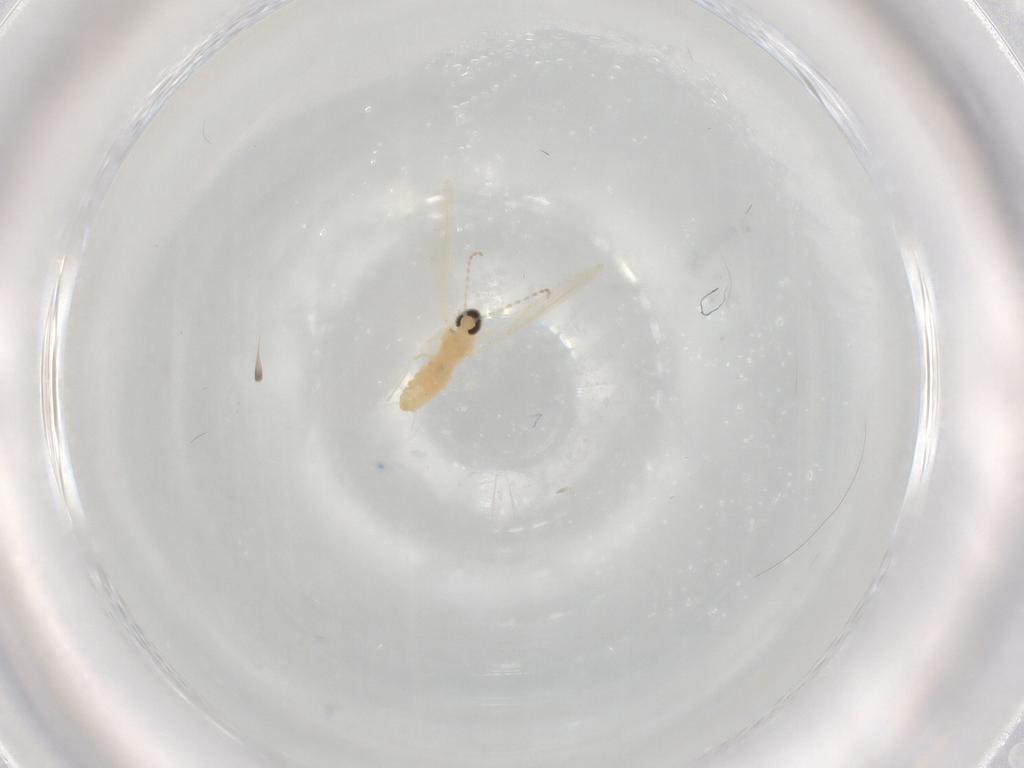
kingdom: Animalia
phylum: Arthropoda
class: Insecta
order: Diptera
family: Cecidomyiidae
